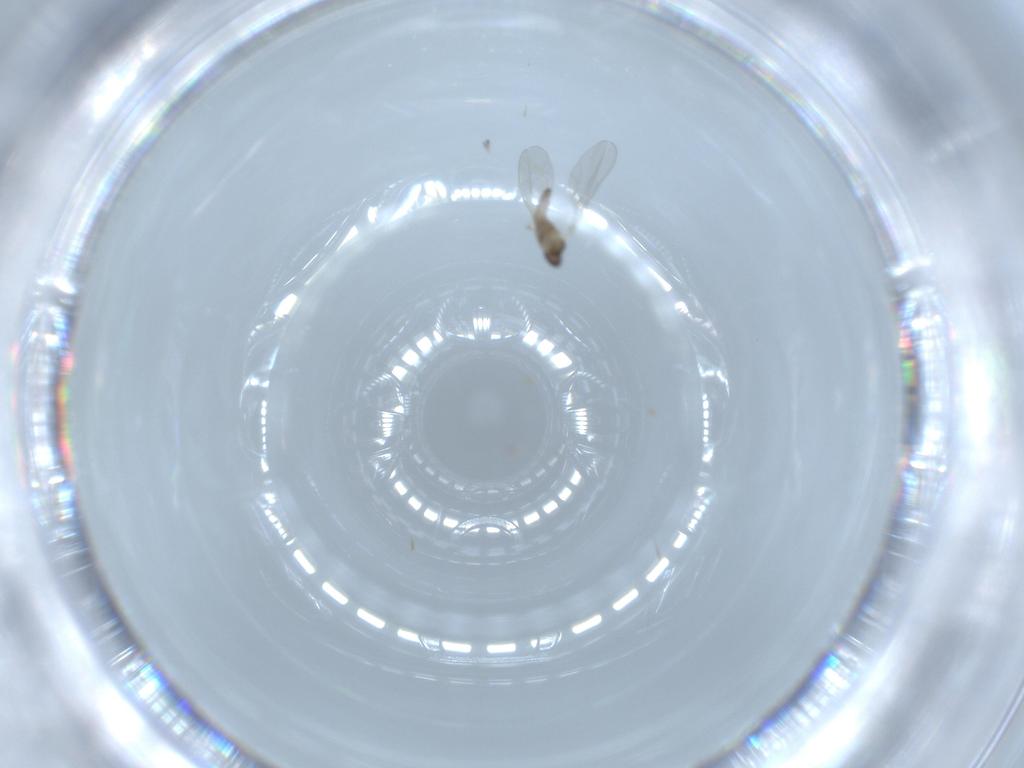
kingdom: Animalia
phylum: Arthropoda
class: Insecta
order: Diptera
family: Cecidomyiidae
